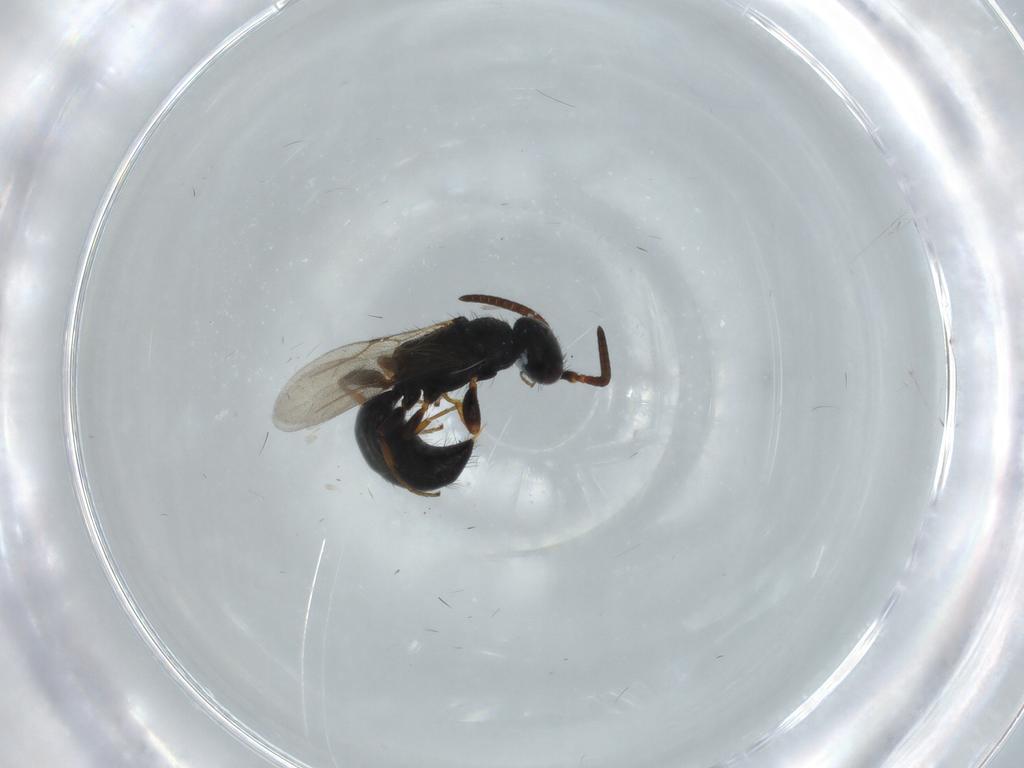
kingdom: Animalia
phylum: Arthropoda
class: Insecta
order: Hymenoptera
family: Bethylidae
